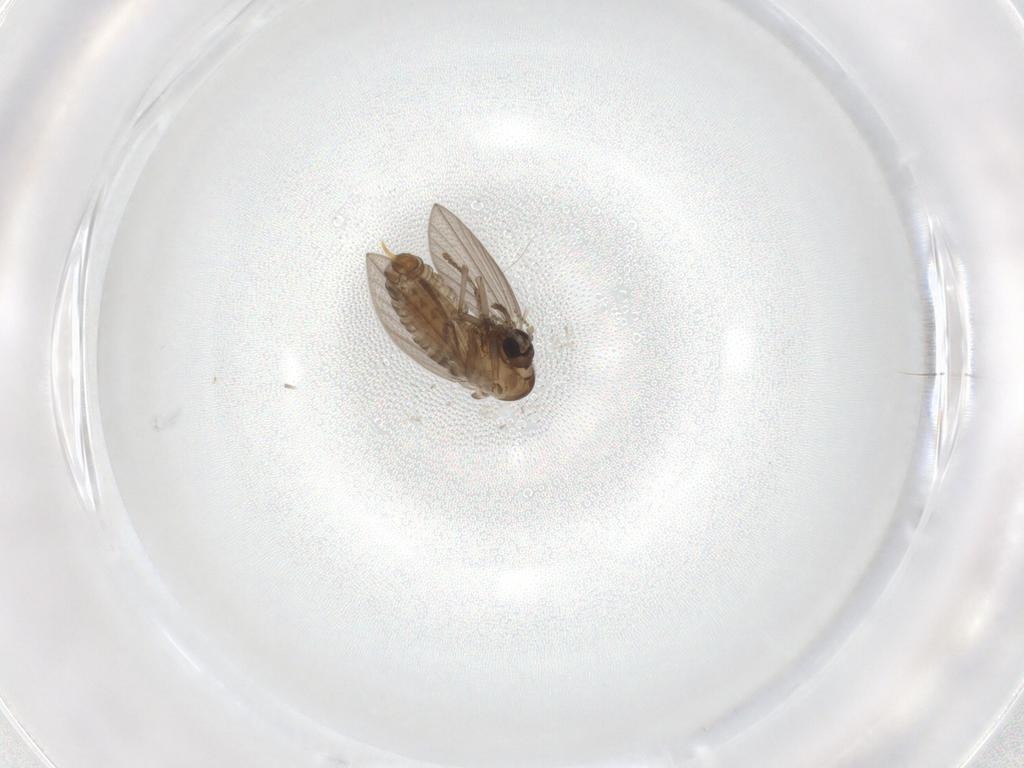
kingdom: Animalia
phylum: Arthropoda
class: Insecta
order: Diptera
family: Psychodidae
